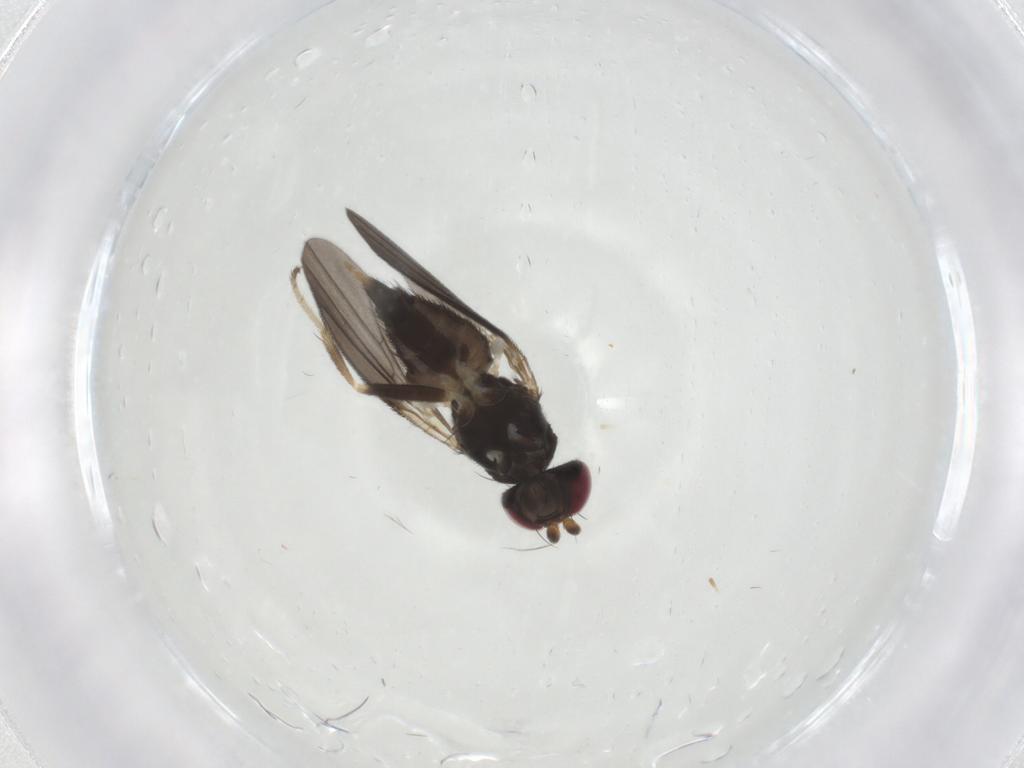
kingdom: Animalia
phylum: Arthropoda
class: Insecta
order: Diptera
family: Clusiidae
